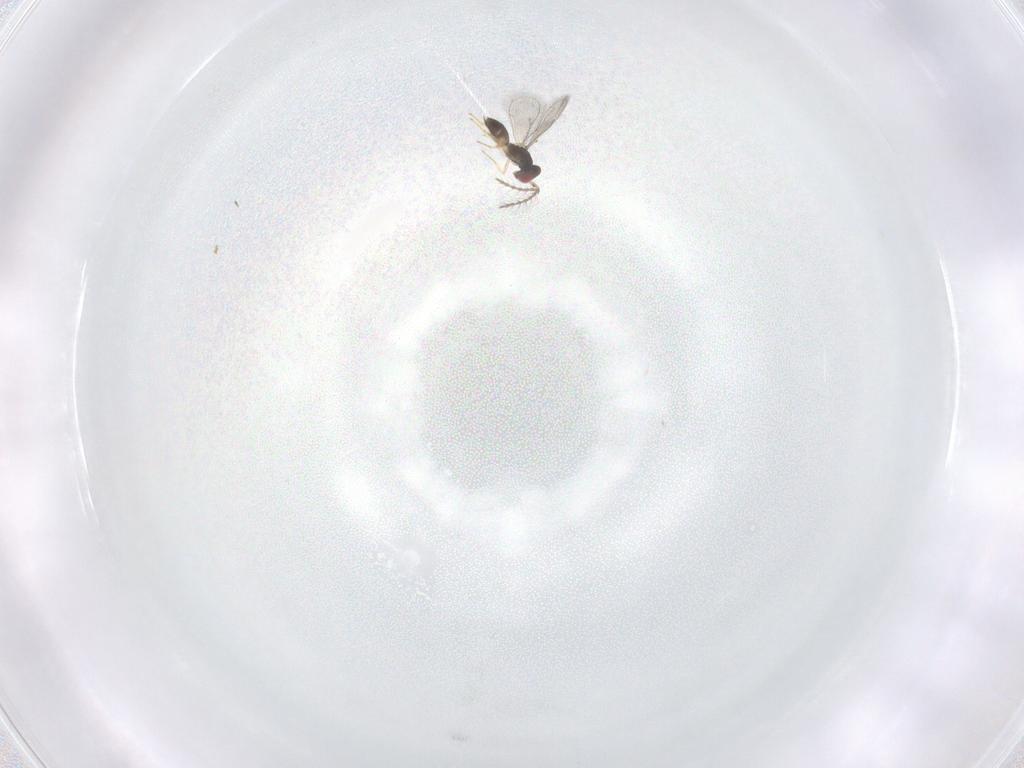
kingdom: Animalia
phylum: Arthropoda
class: Insecta
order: Hymenoptera
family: Eulophidae
